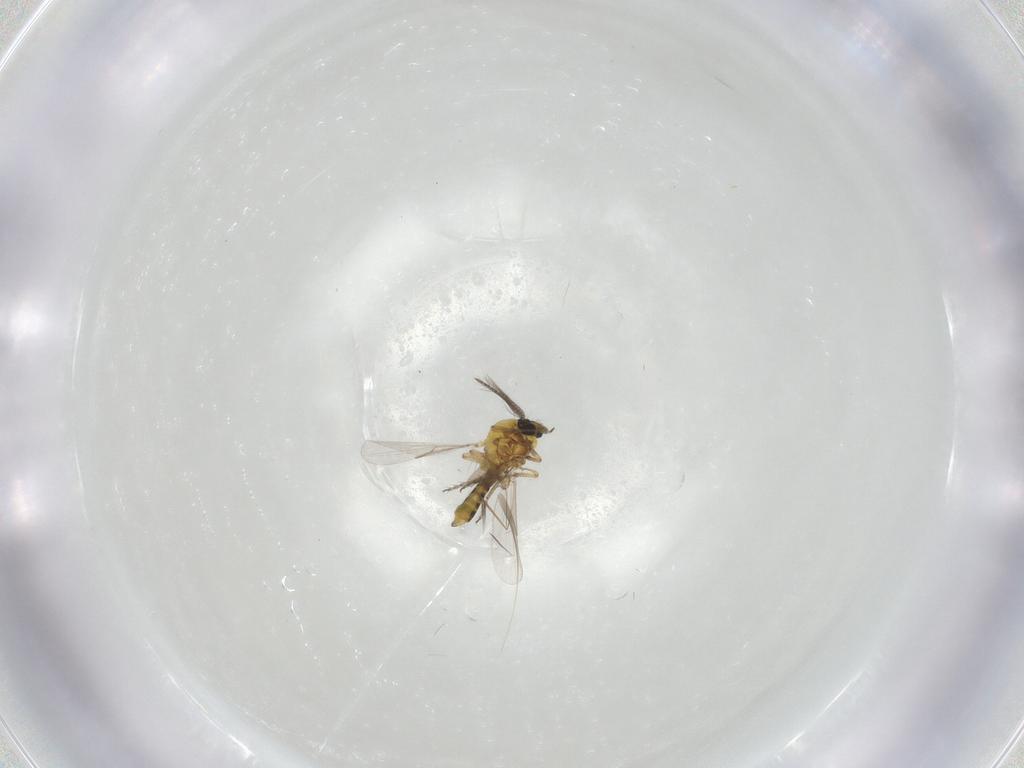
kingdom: Animalia
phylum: Arthropoda
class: Insecta
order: Diptera
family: Ceratopogonidae
